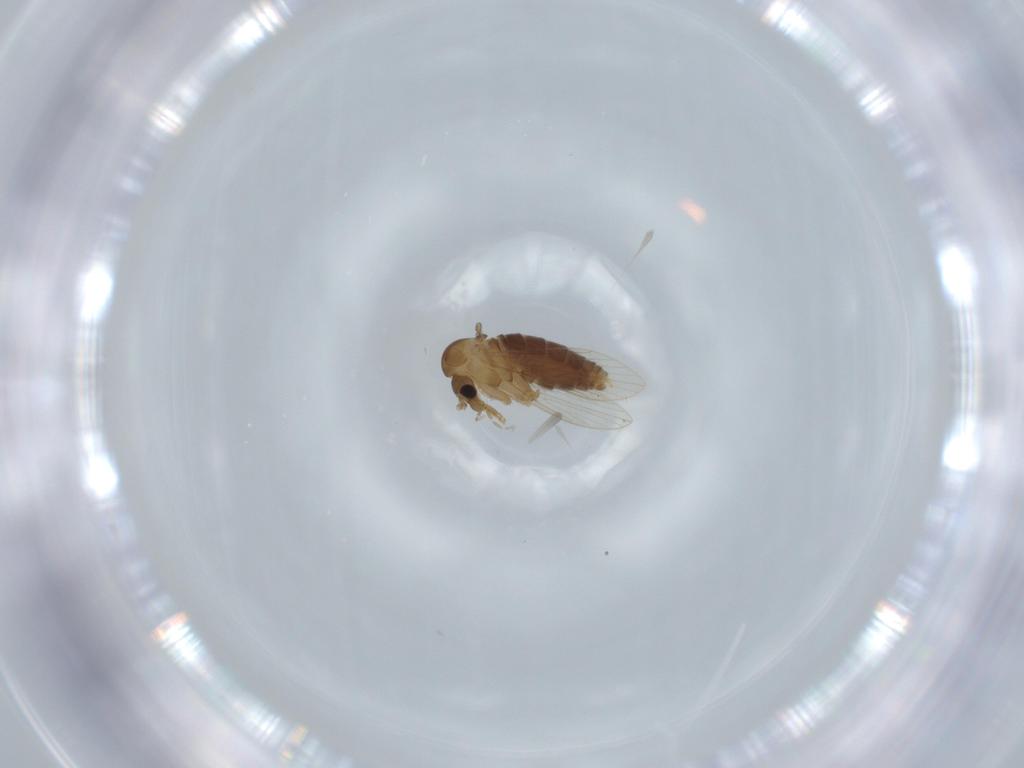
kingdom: Animalia
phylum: Arthropoda
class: Insecta
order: Diptera
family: Psychodidae
